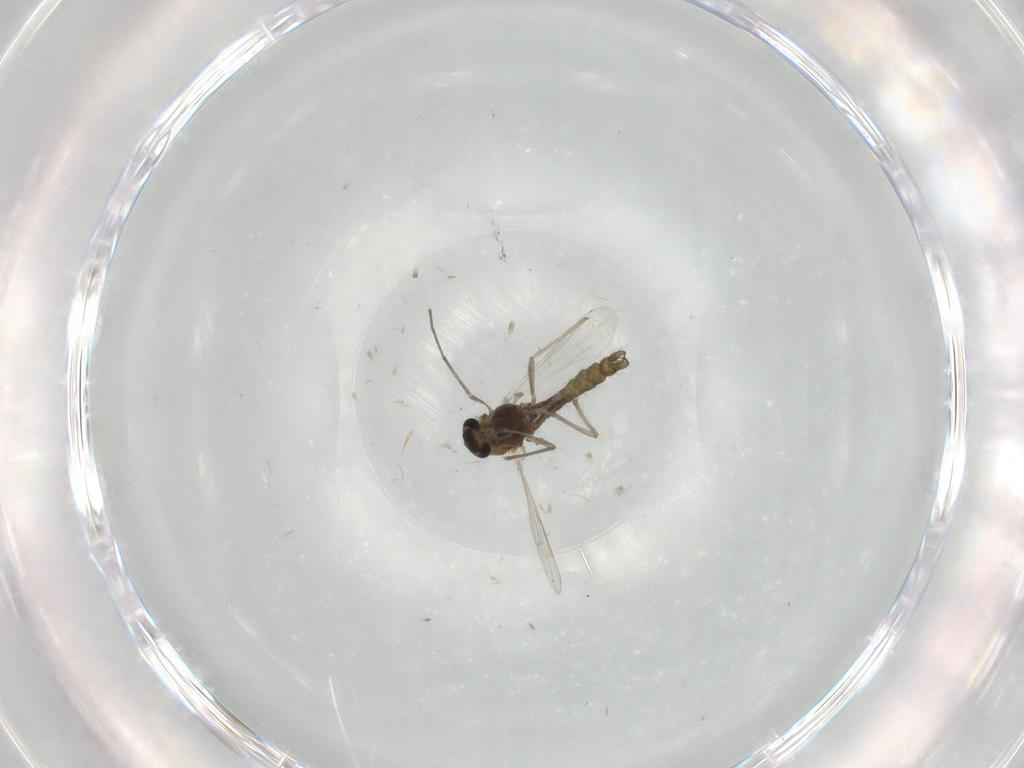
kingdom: Animalia
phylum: Arthropoda
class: Insecta
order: Diptera
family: Chironomidae
